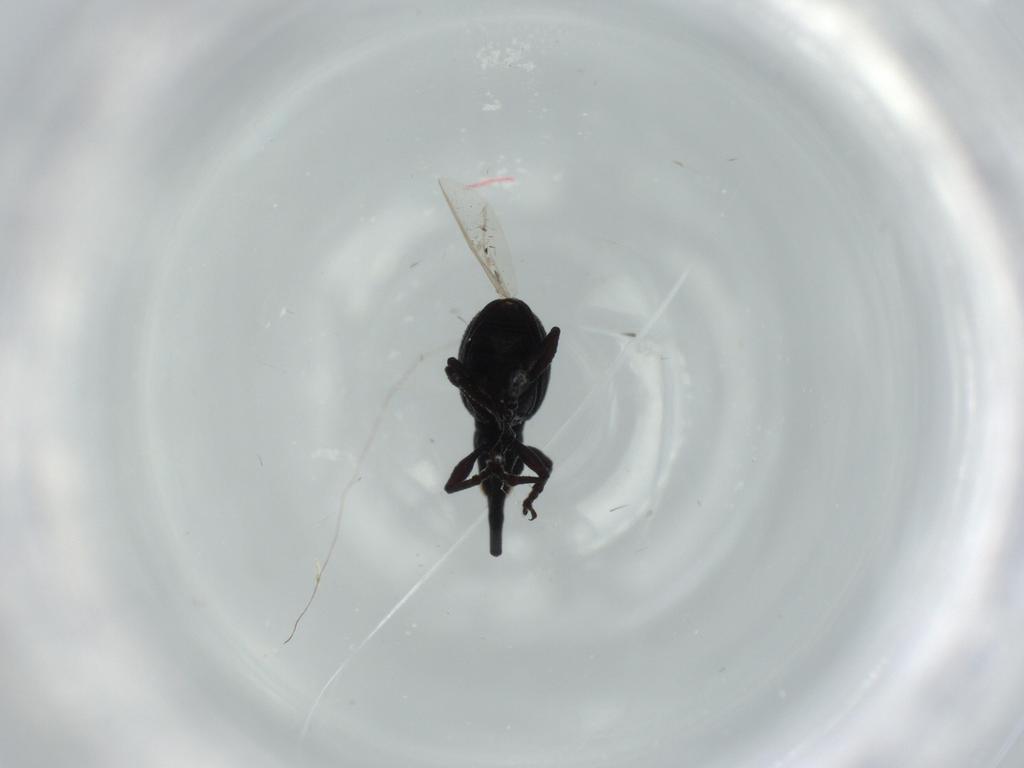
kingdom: Animalia
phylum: Arthropoda
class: Insecta
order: Coleoptera
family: Brentidae
